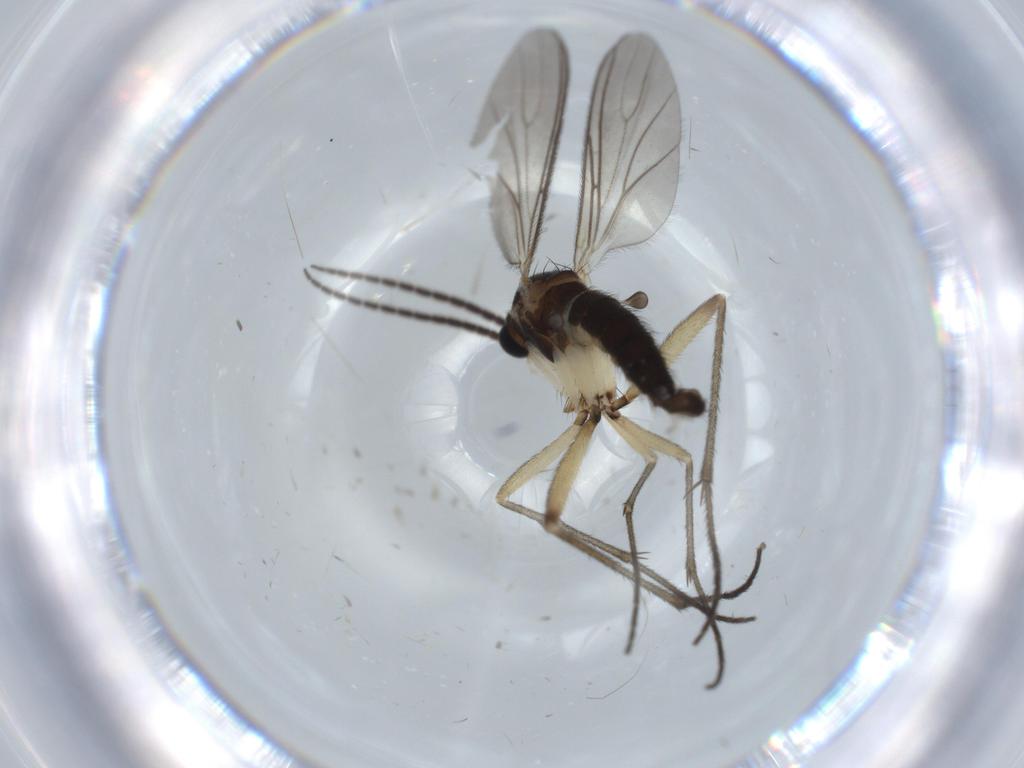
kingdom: Animalia
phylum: Arthropoda
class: Insecta
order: Diptera
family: Sciaridae
